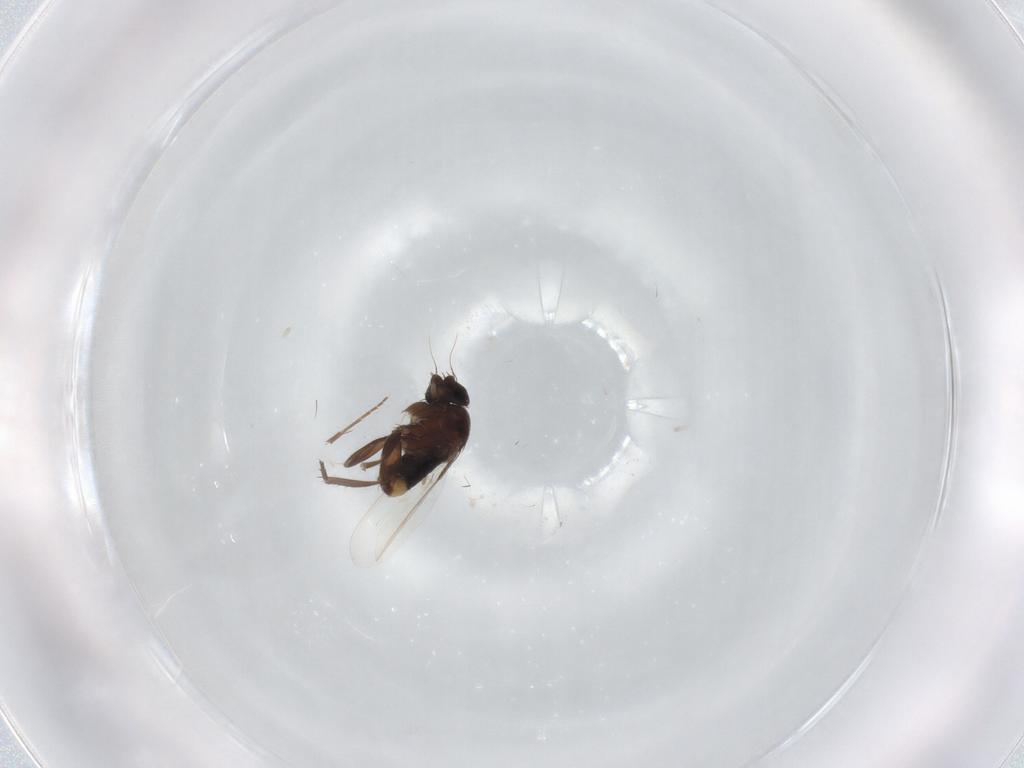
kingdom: Animalia
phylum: Arthropoda
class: Insecta
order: Diptera
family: Phoridae
